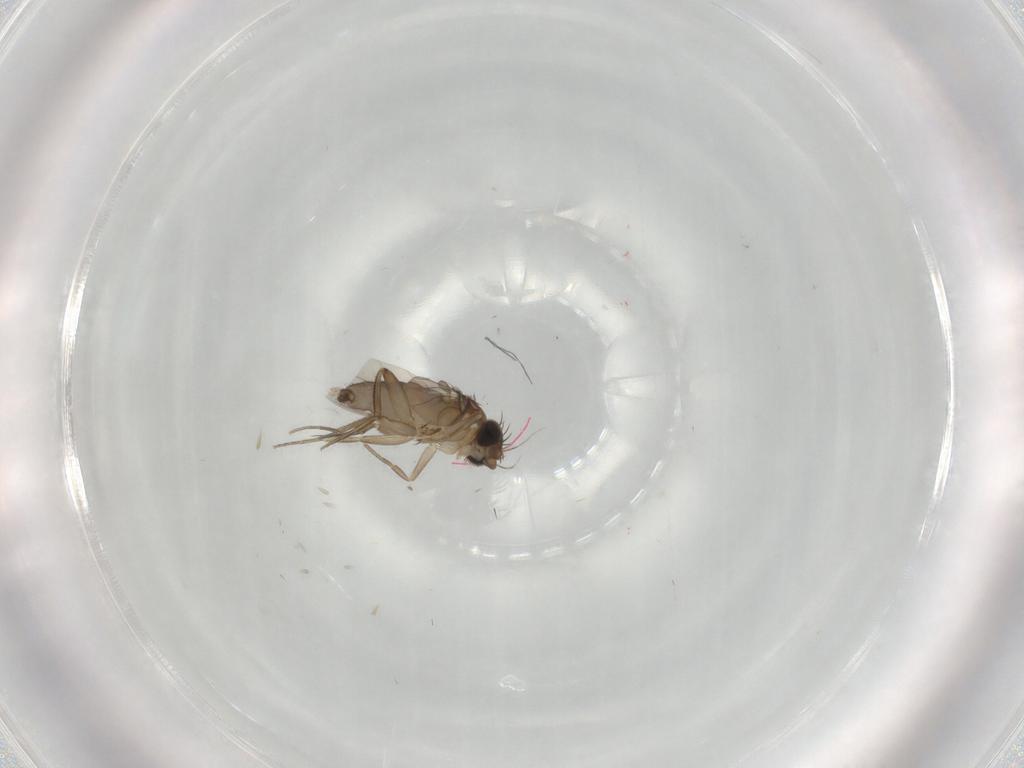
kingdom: Animalia
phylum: Arthropoda
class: Insecta
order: Diptera
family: Phoridae
